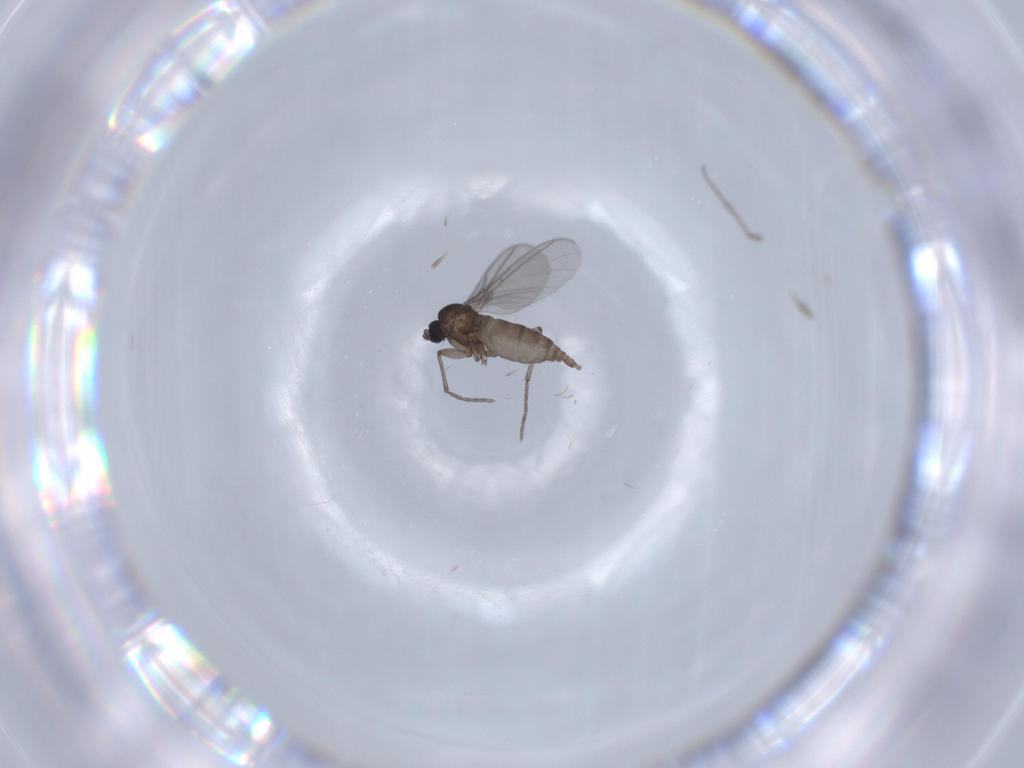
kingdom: Animalia
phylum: Arthropoda
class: Insecta
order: Diptera
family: Sciaridae
